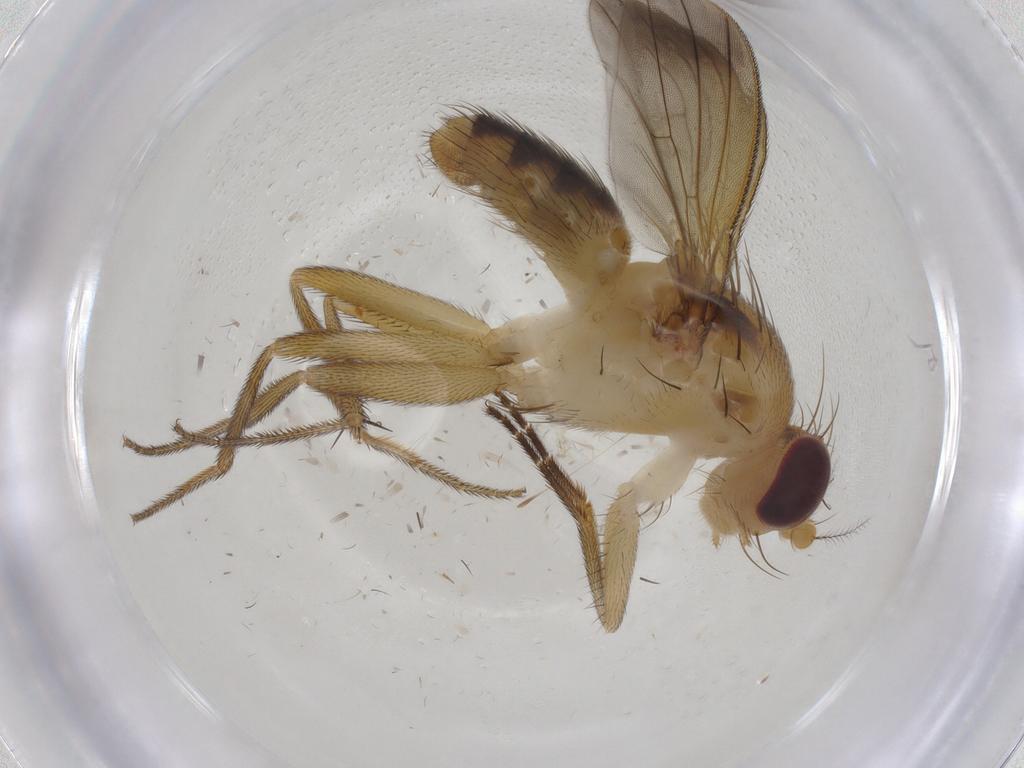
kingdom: Animalia
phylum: Arthropoda
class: Insecta
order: Diptera
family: Clusiidae
